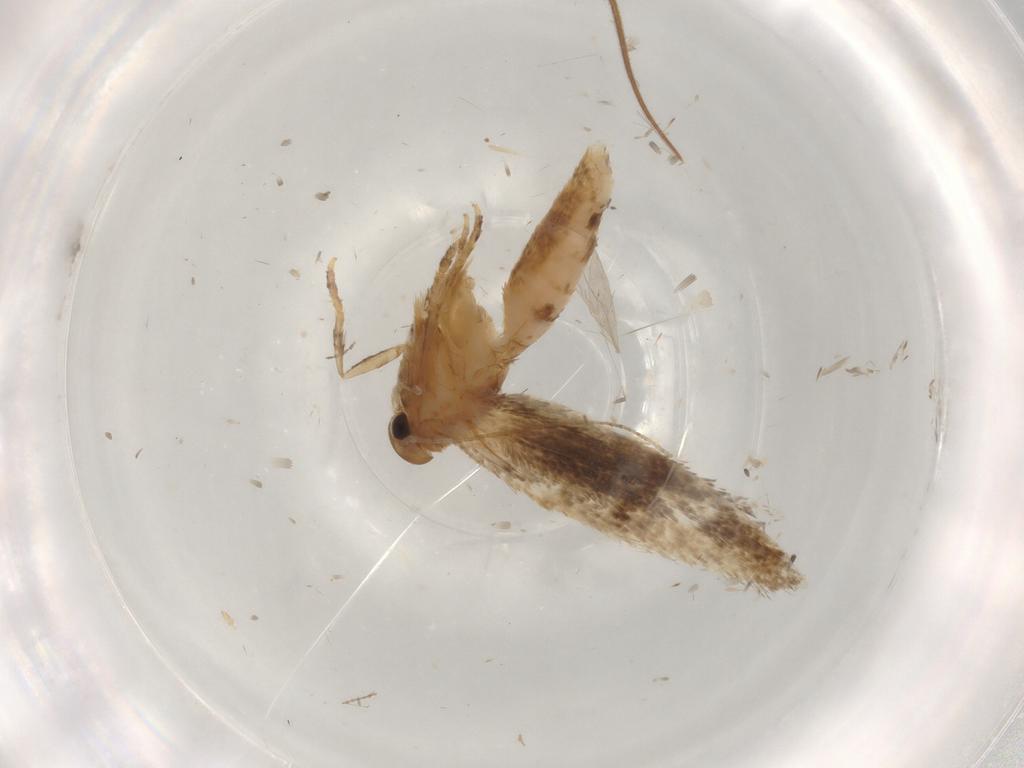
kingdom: Animalia
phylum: Arthropoda
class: Insecta
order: Lepidoptera
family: Elachistidae
